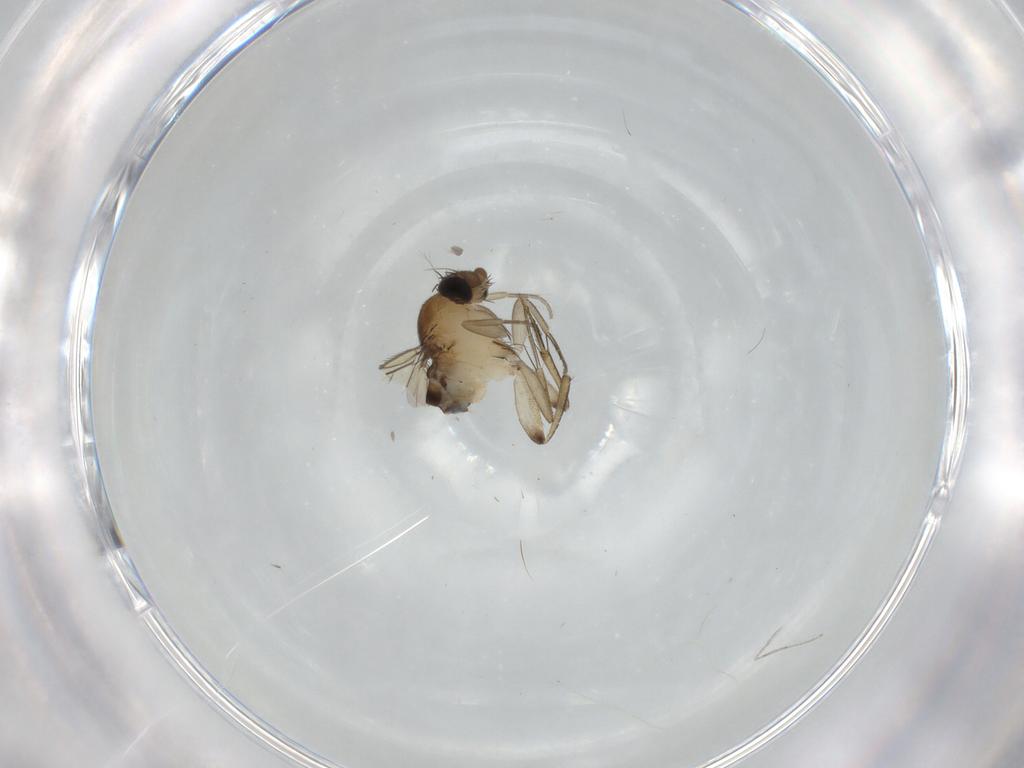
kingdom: Animalia
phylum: Arthropoda
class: Insecta
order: Diptera
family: Phoridae
